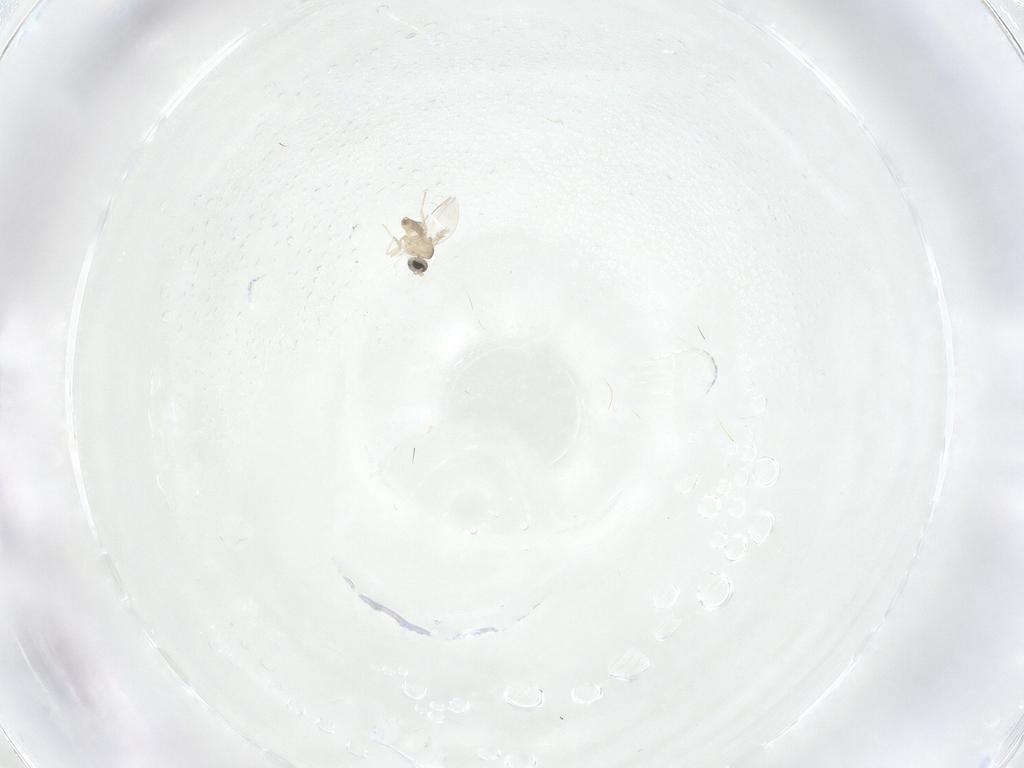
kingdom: Animalia
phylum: Arthropoda
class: Insecta
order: Diptera
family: Cecidomyiidae
